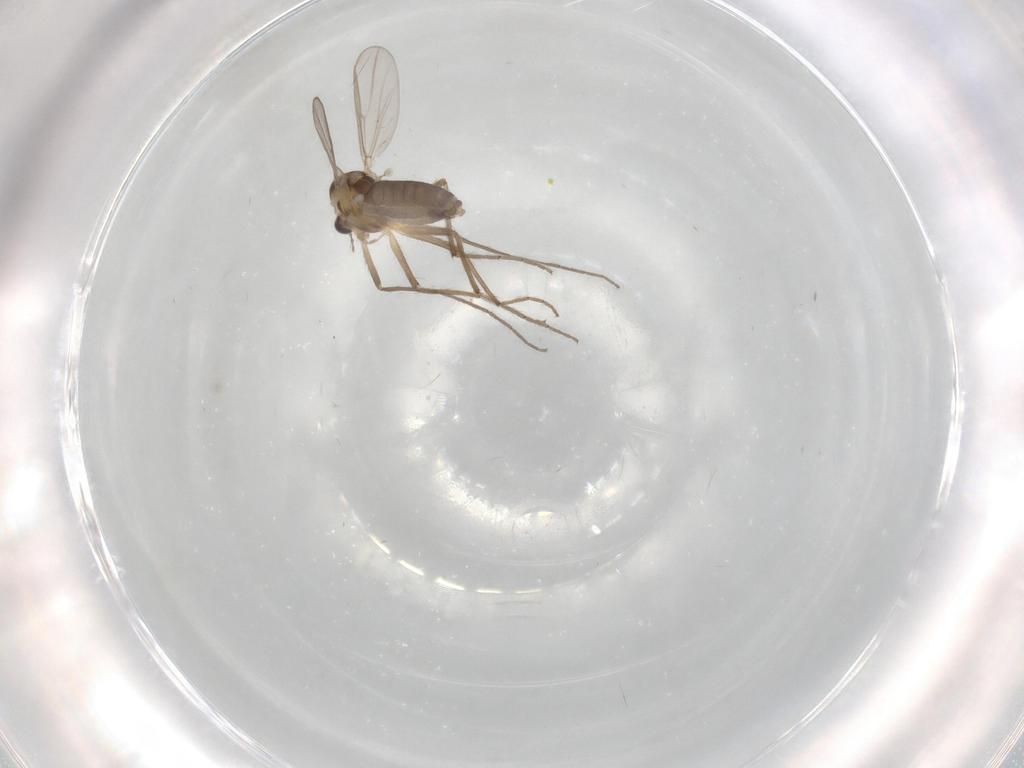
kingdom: Animalia
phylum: Arthropoda
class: Insecta
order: Diptera
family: Chironomidae
